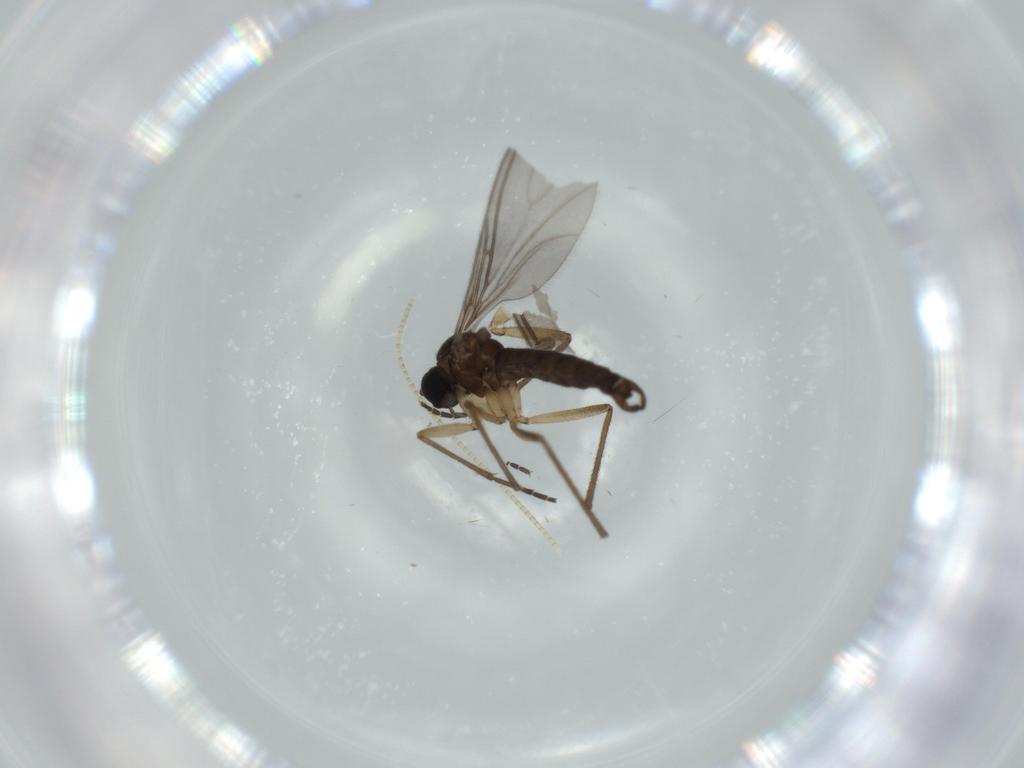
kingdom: Animalia
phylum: Arthropoda
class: Insecta
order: Diptera
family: Sciaridae
